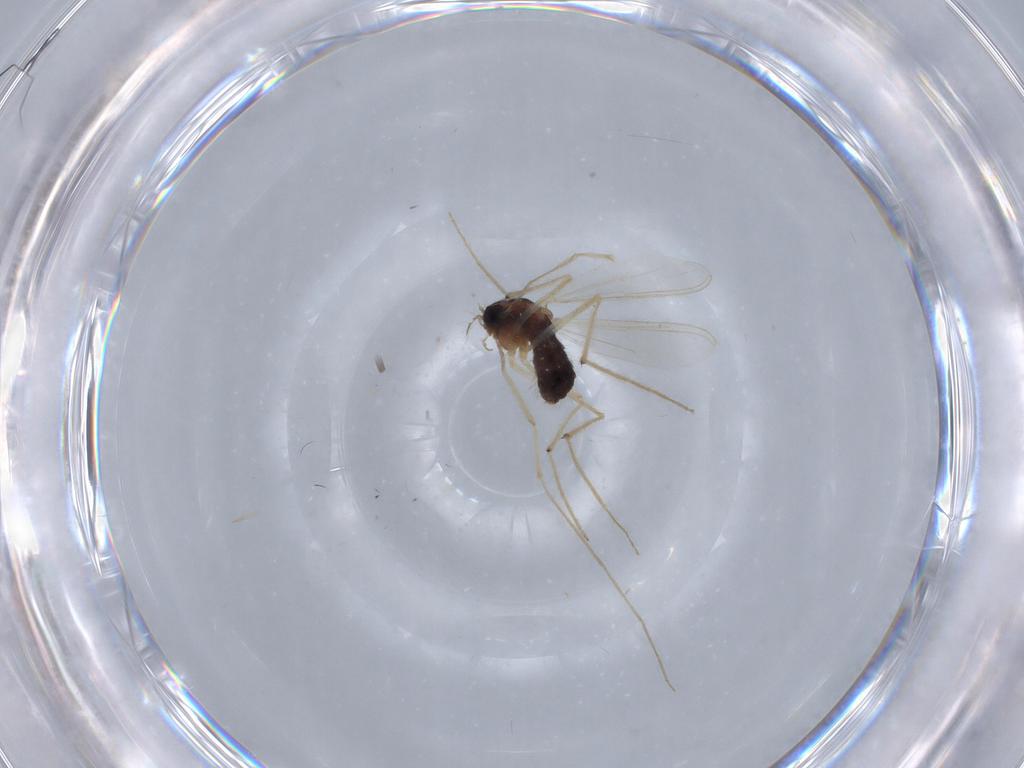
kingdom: Animalia
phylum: Arthropoda
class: Insecta
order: Diptera
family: Chironomidae
